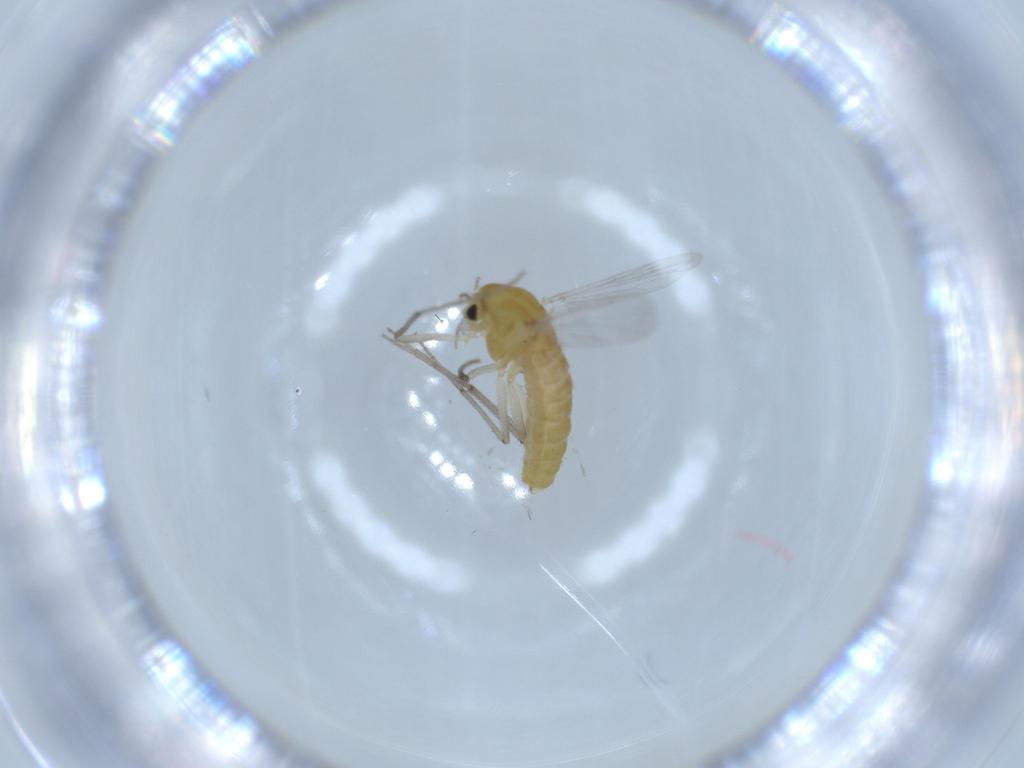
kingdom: Animalia
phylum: Arthropoda
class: Insecta
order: Diptera
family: Chironomidae
